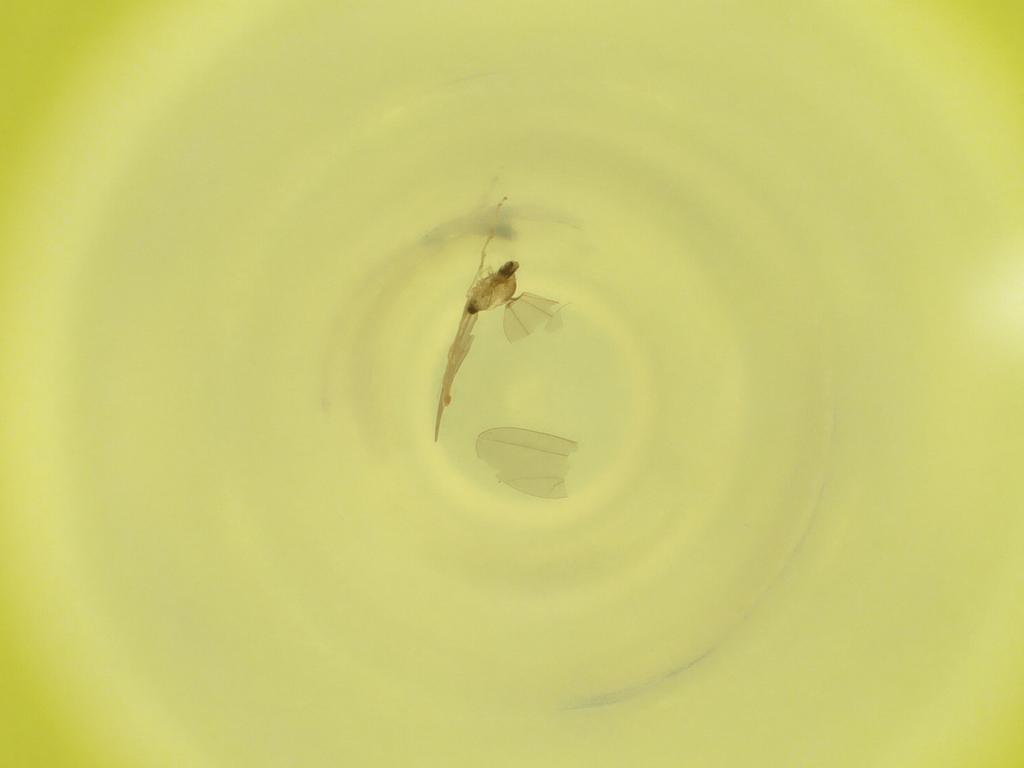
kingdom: Animalia
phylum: Arthropoda
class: Insecta
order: Diptera
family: Cecidomyiidae
